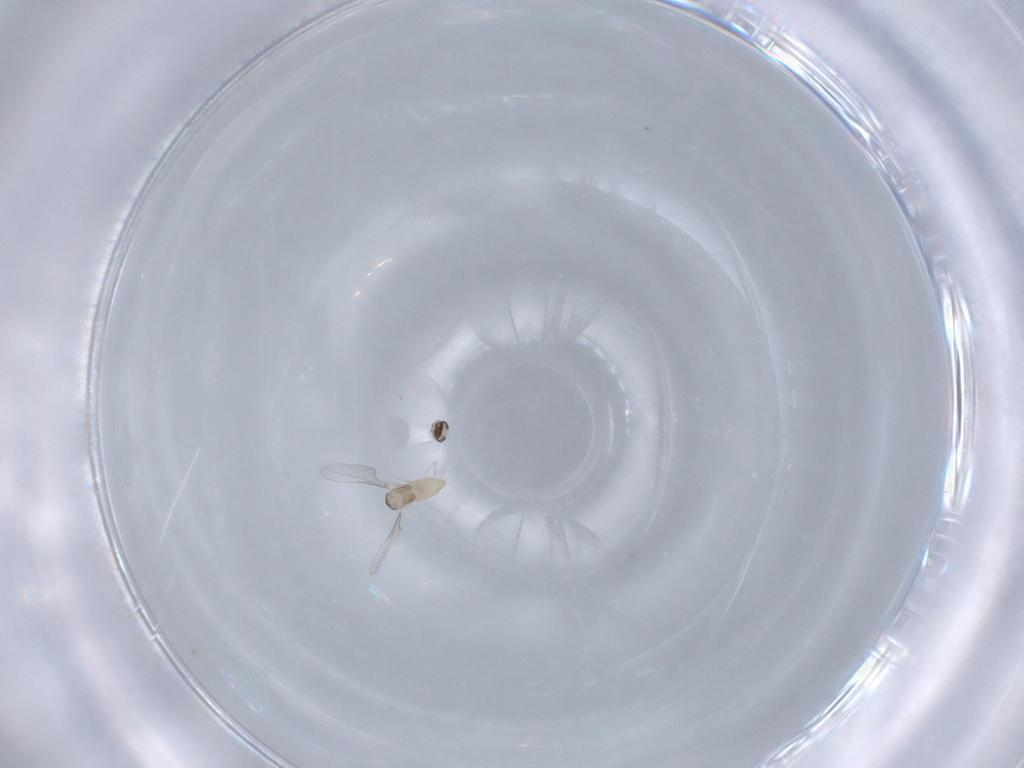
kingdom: Animalia
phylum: Arthropoda
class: Insecta
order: Diptera
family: Cecidomyiidae
